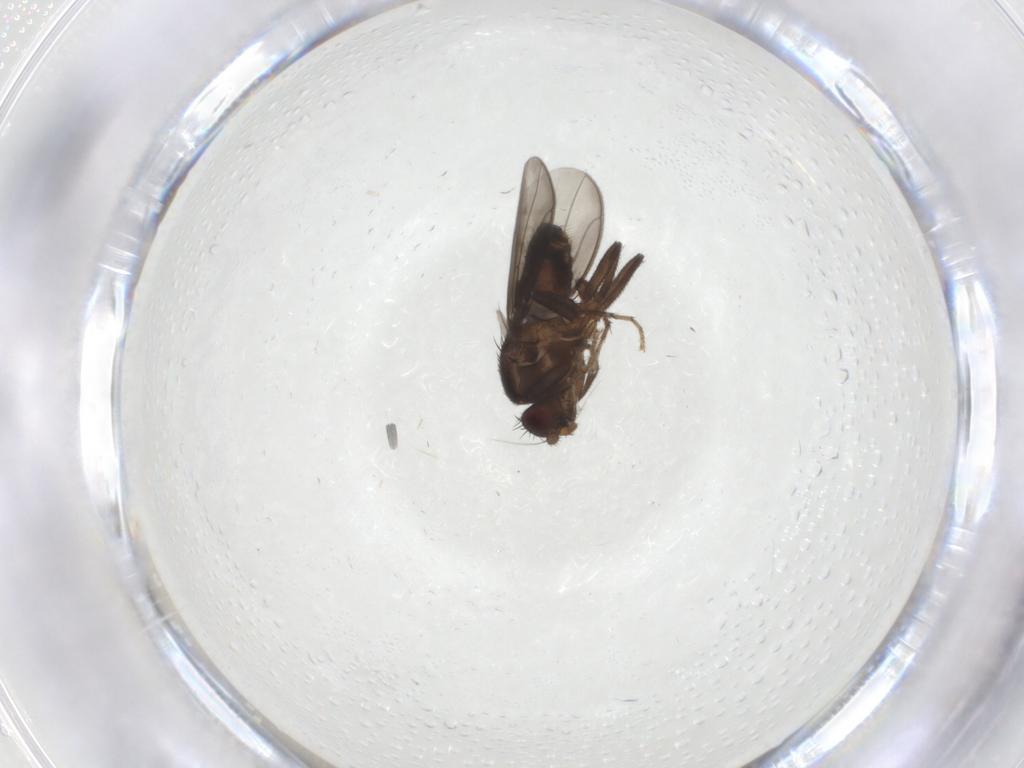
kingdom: Animalia
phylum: Arthropoda
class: Insecta
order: Diptera
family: Sphaeroceridae
